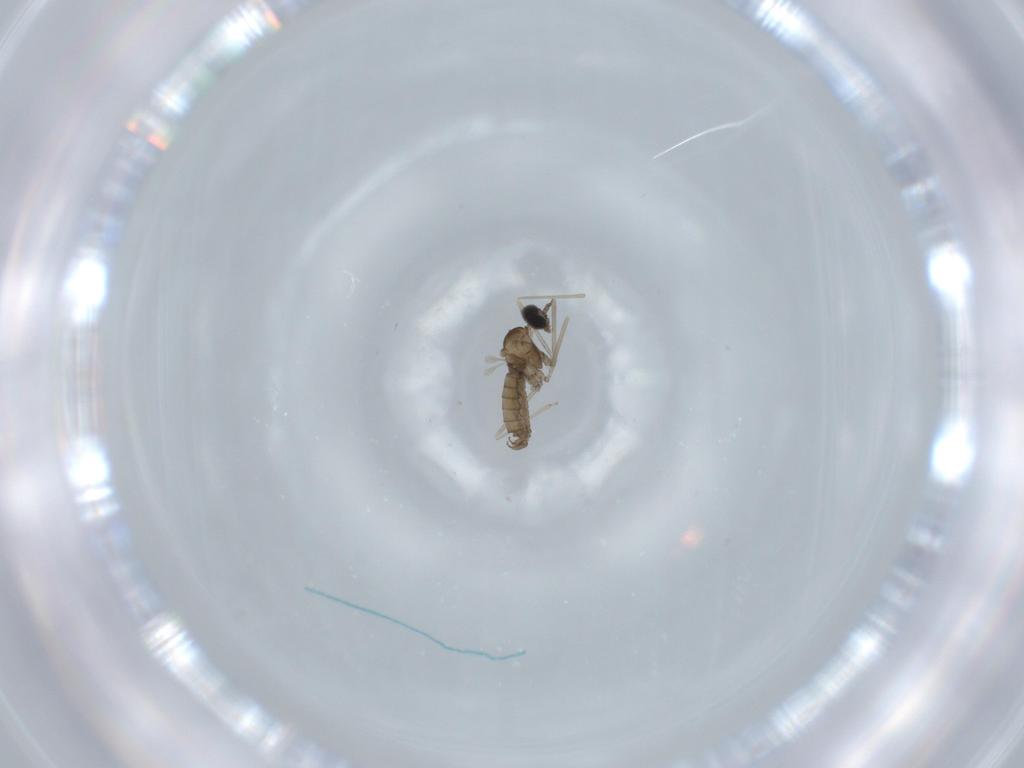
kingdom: Animalia
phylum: Arthropoda
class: Insecta
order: Diptera
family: Cecidomyiidae
